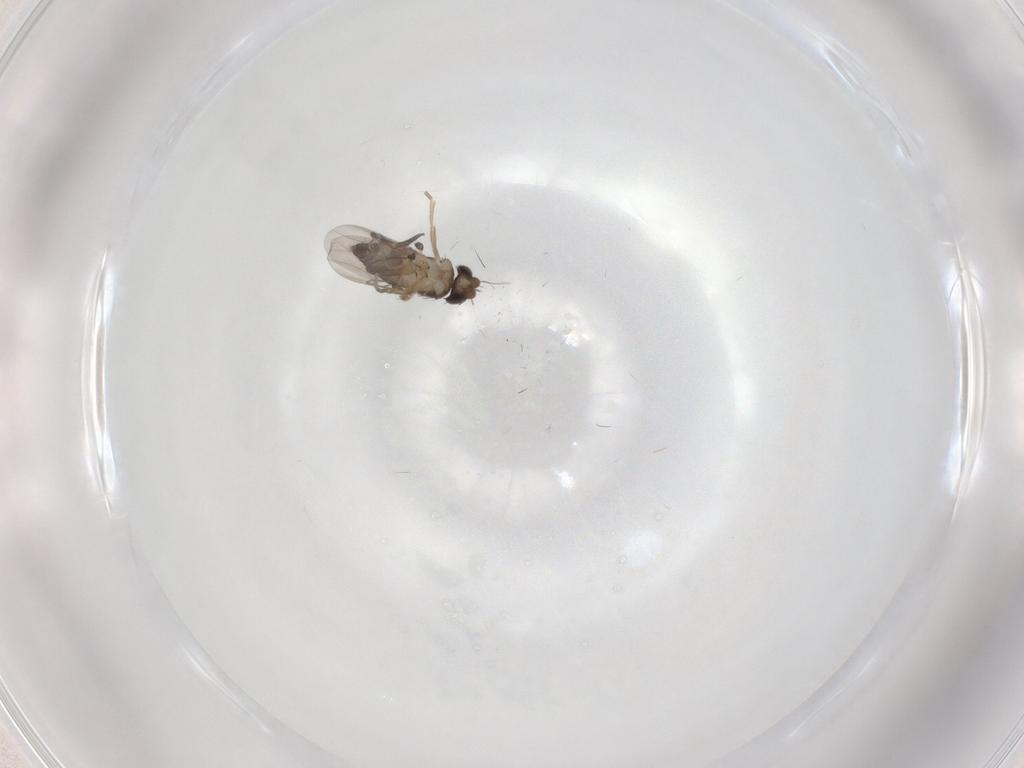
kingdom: Animalia
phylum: Arthropoda
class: Insecta
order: Diptera
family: Phoridae
